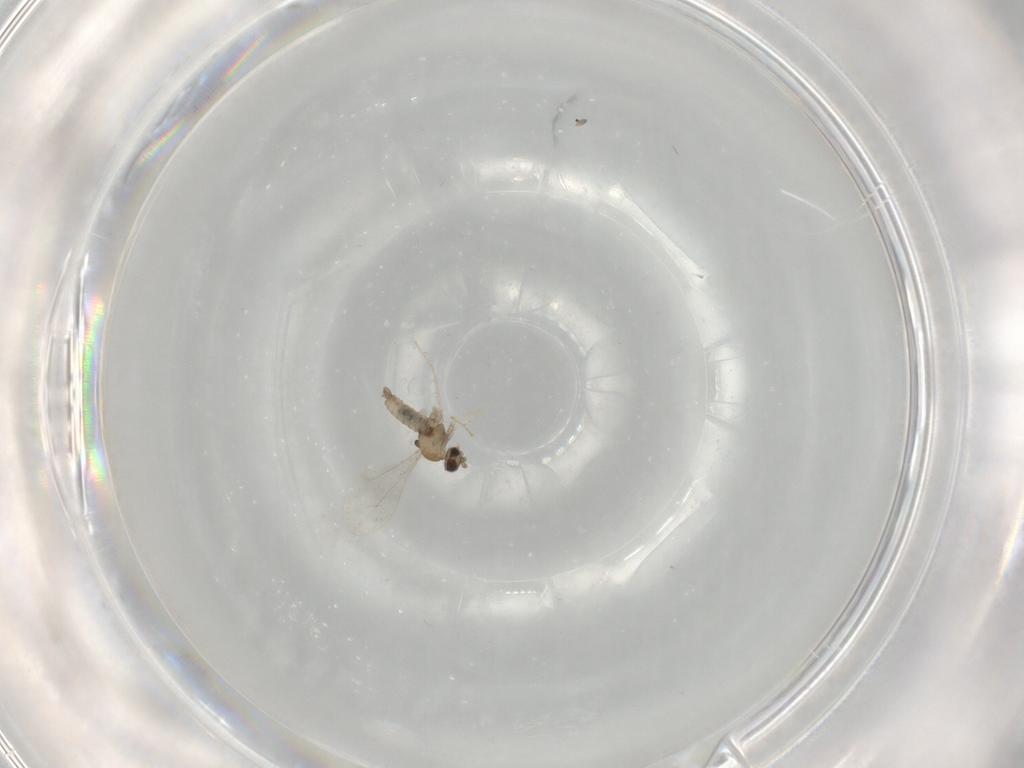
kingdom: Animalia
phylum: Arthropoda
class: Insecta
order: Diptera
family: Cecidomyiidae
